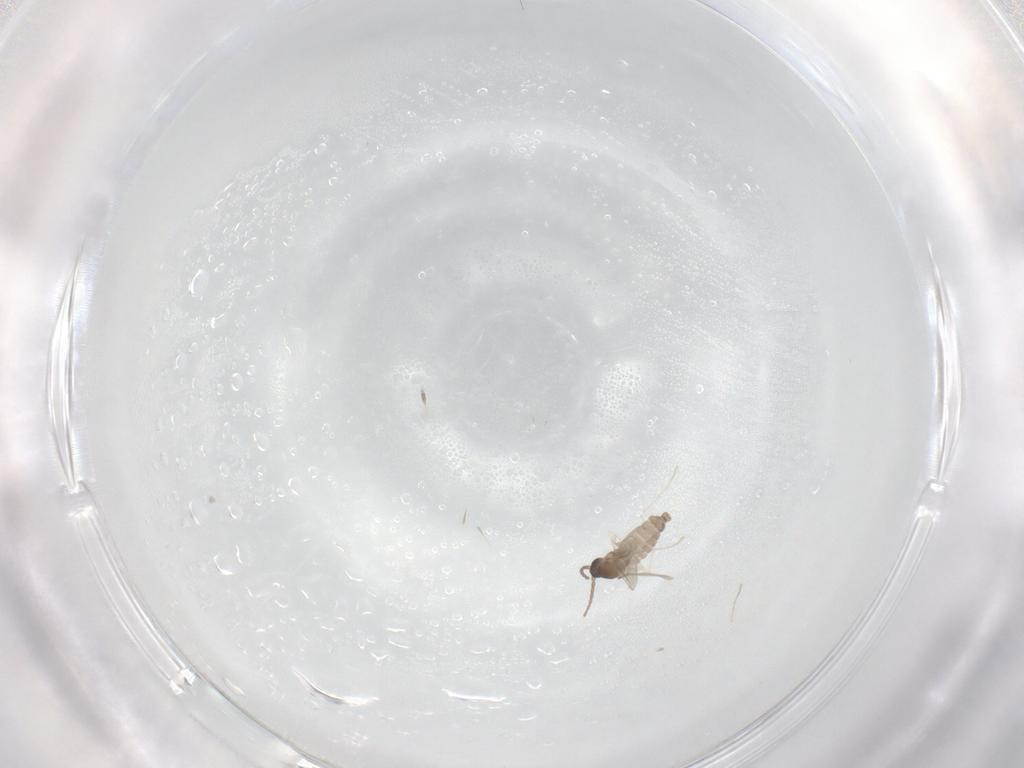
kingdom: Animalia
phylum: Arthropoda
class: Insecta
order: Diptera
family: Cecidomyiidae
